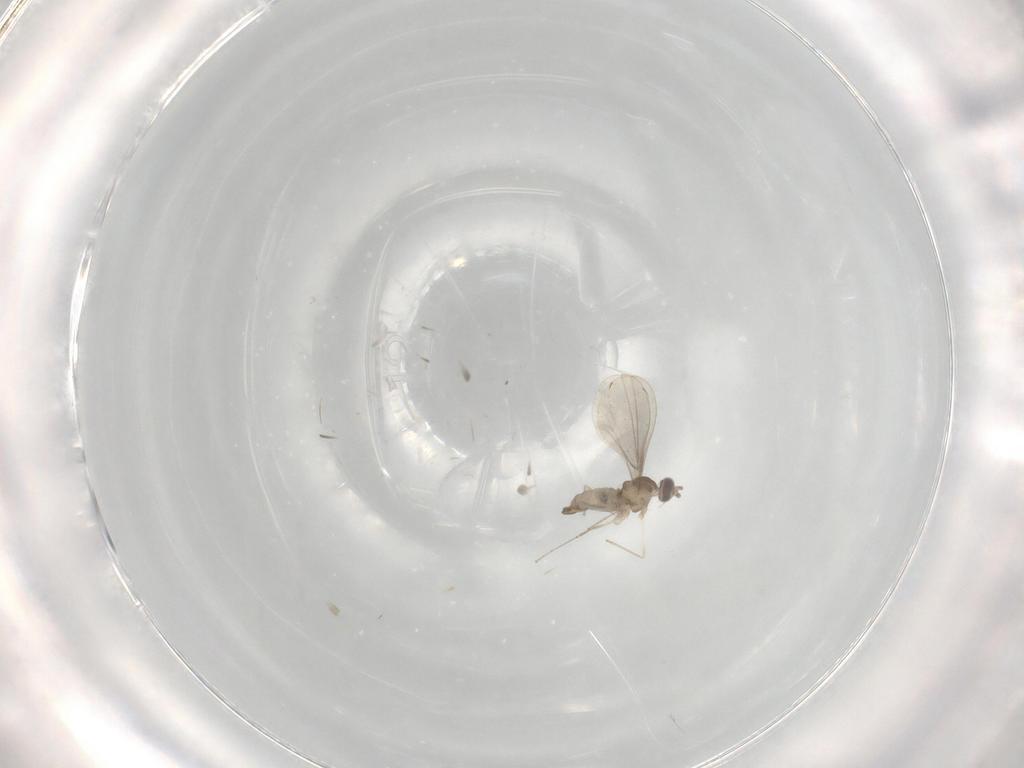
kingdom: Animalia
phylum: Arthropoda
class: Insecta
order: Diptera
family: Cecidomyiidae
